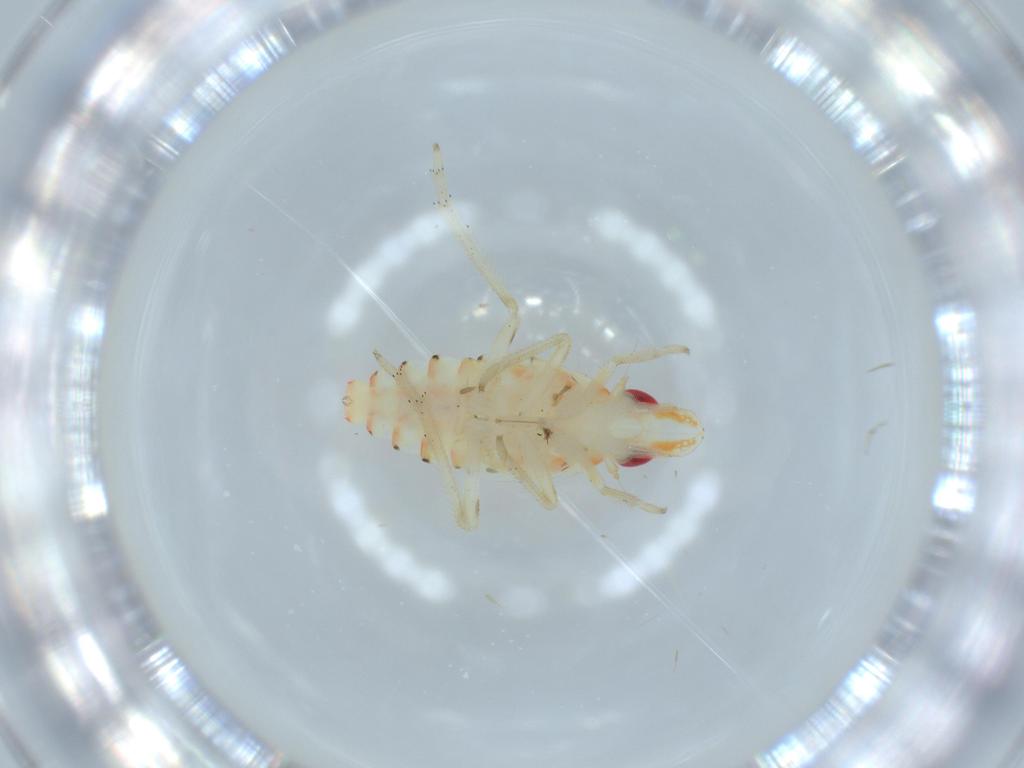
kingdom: Animalia
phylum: Arthropoda
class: Insecta
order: Hemiptera
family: Tropiduchidae
